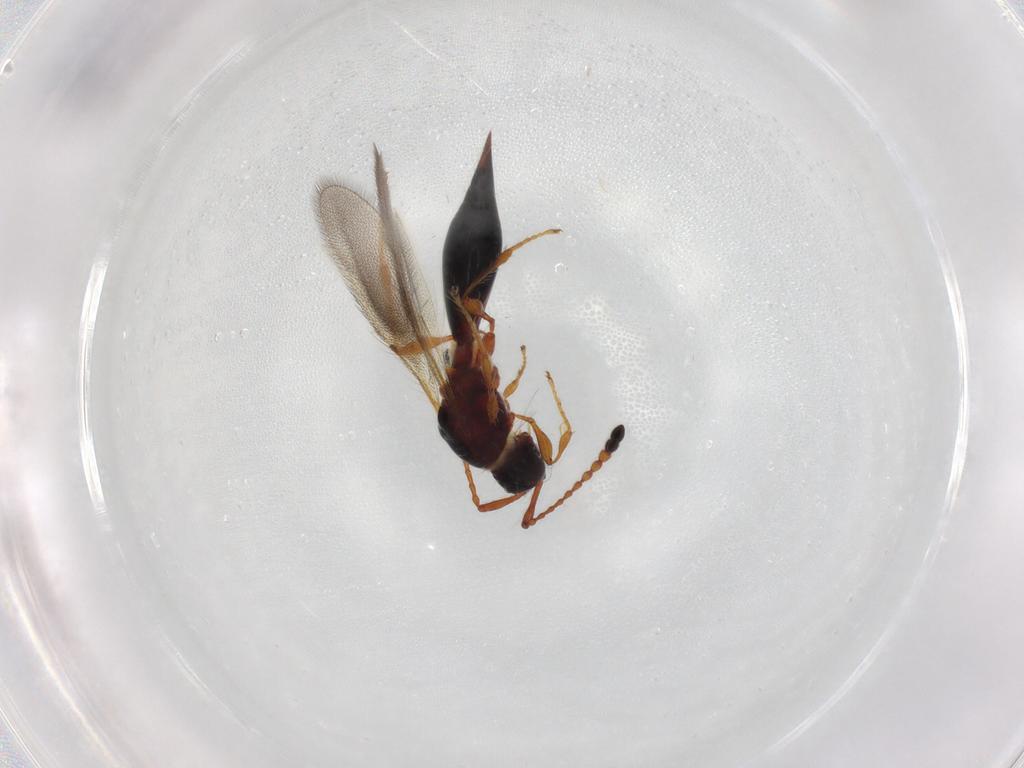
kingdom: Animalia
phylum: Arthropoda
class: Insecta
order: Hymenoptera
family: Diapriidae
